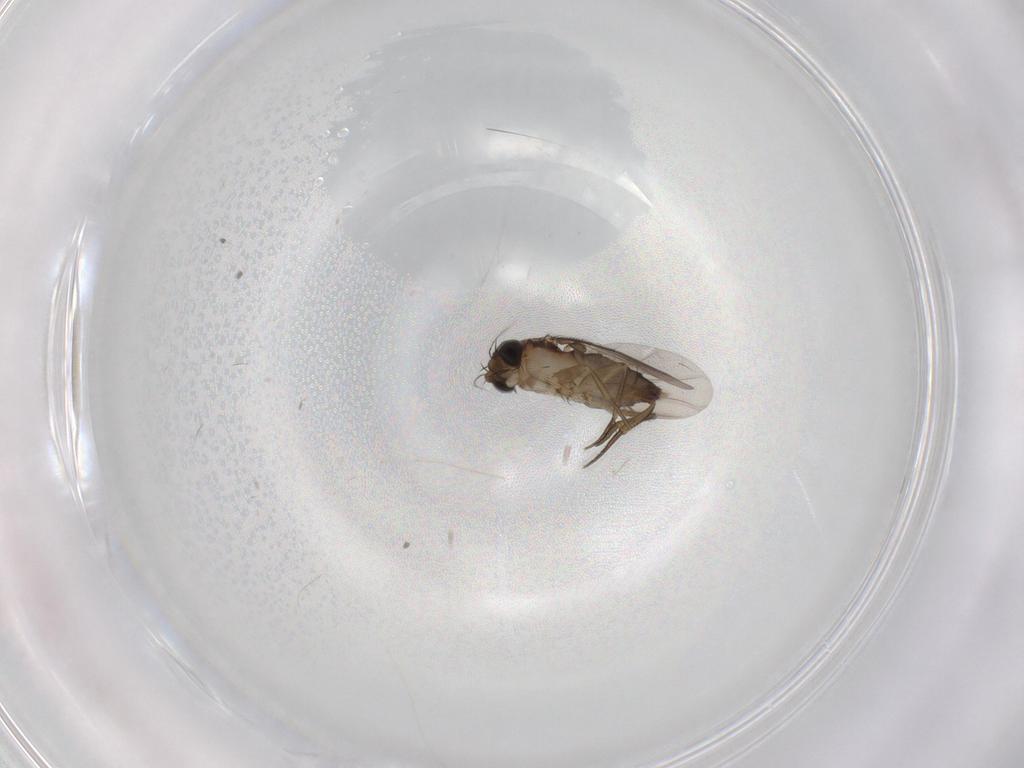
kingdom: Animalia
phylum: Arthropoda
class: Insecta
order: Diptera
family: Phoridae
